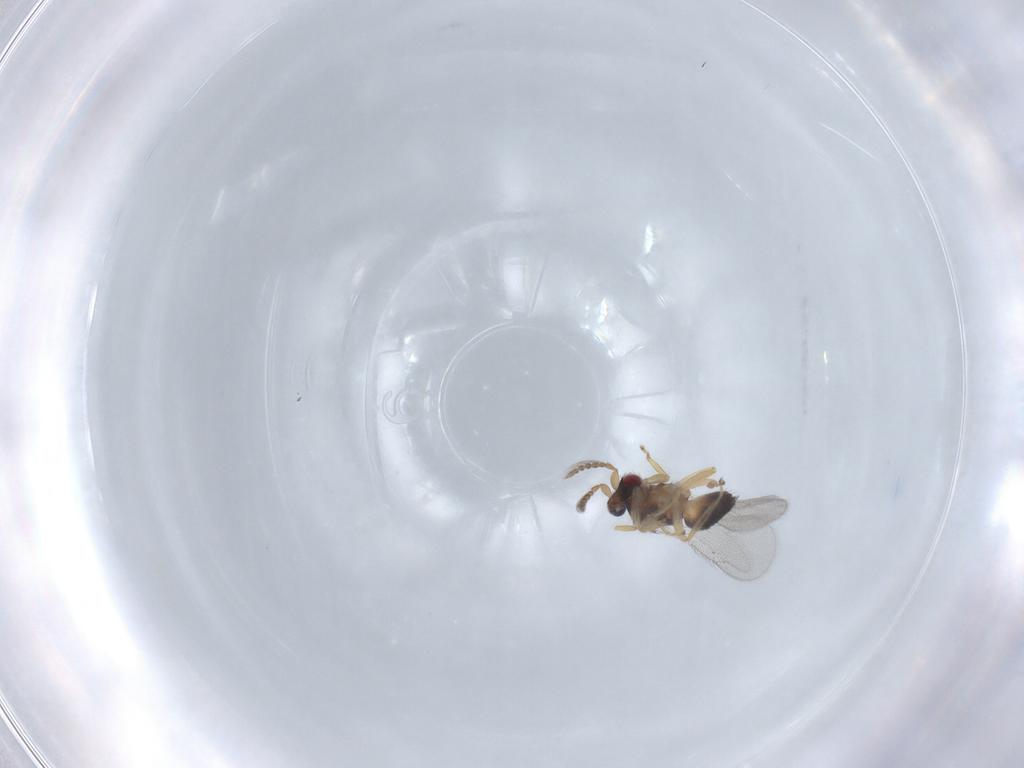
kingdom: Animalia
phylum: Arthropoda
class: Insecta
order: Hymenoptera
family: Eulophidae
